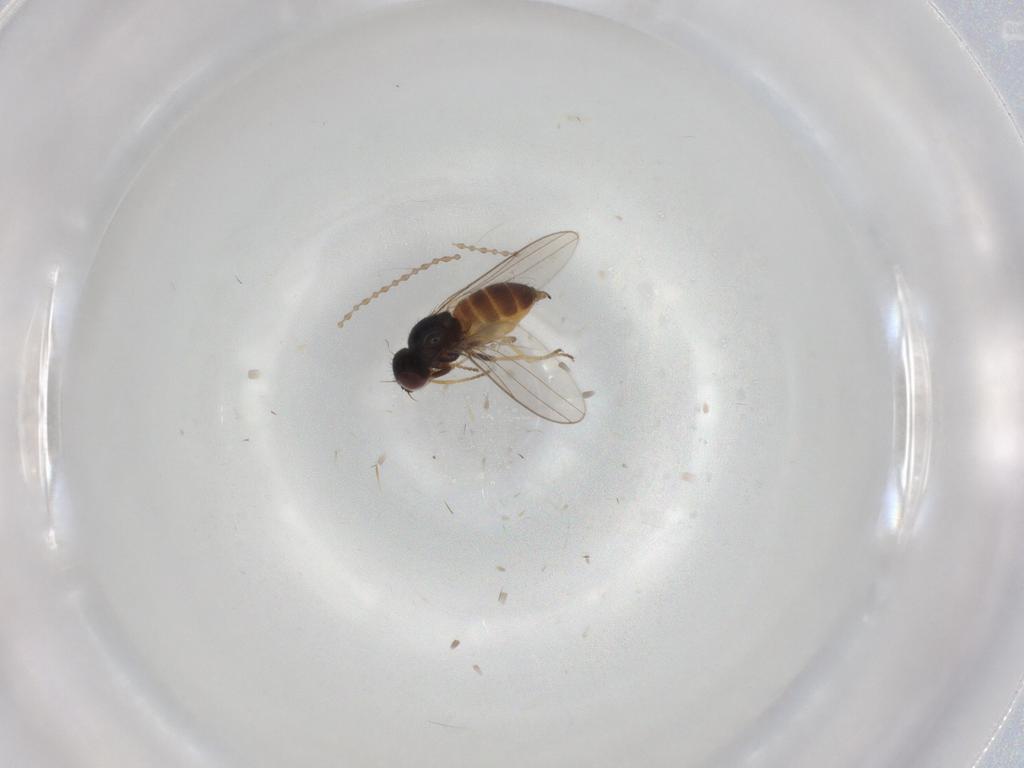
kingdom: Animalia
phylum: Arthropoda
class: Insecta
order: Diptera
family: Chloropidae
